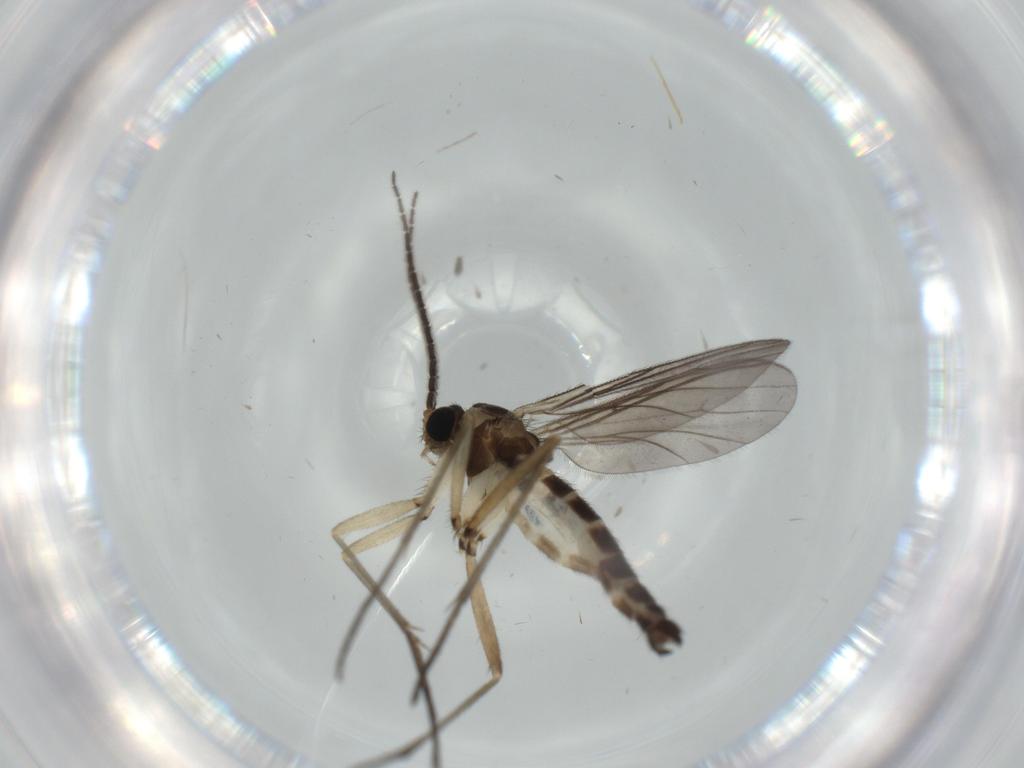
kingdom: Animalia
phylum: Arthropoda
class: Insecta
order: Diptera
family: Sciaridae
